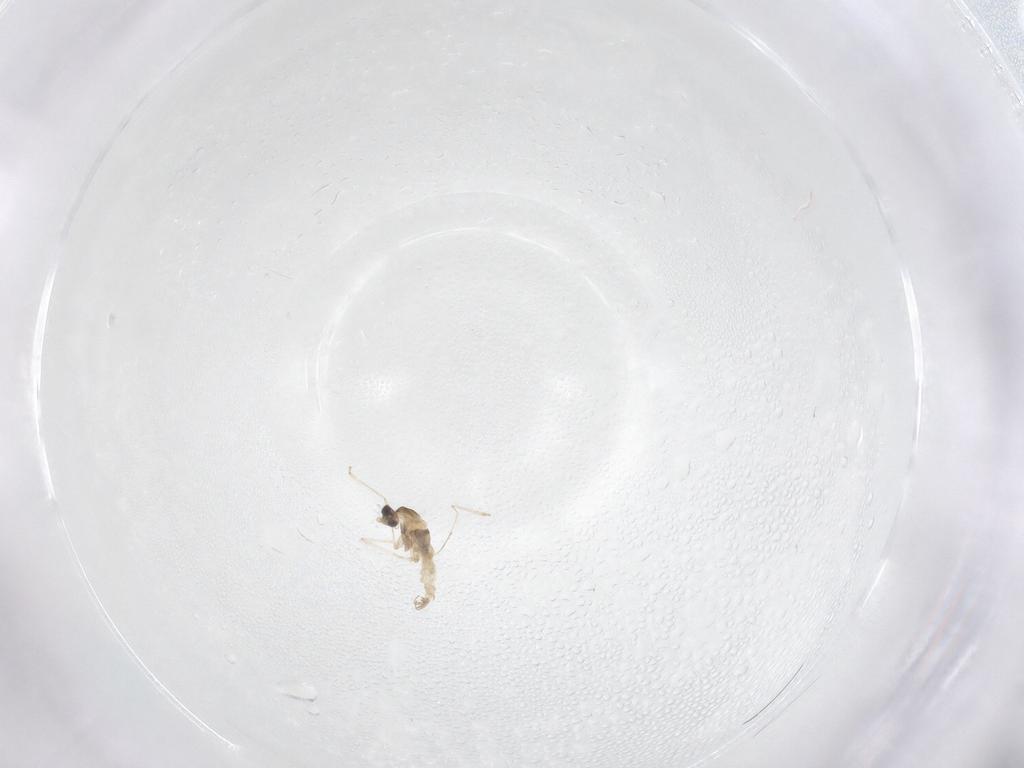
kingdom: Animalia
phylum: Arthropoda
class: Insecta
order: Diptera
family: Cecidomyiidae
